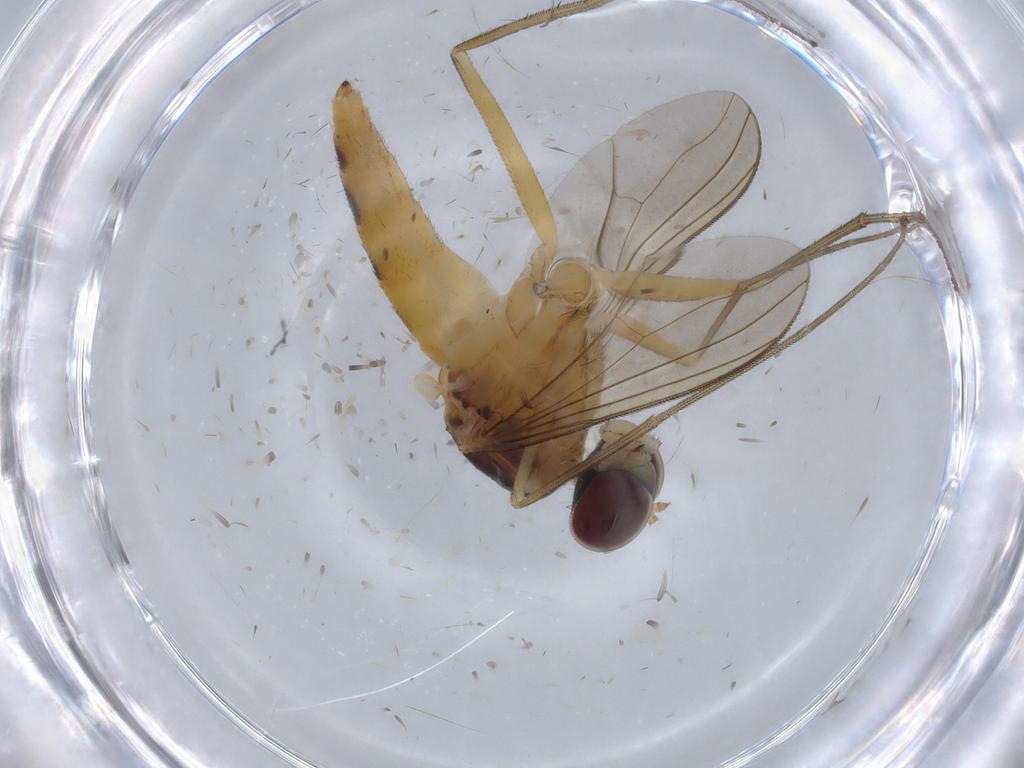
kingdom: Animalia
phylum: Arthropoda
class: Insecta
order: Diptera
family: Dolichopodidae
